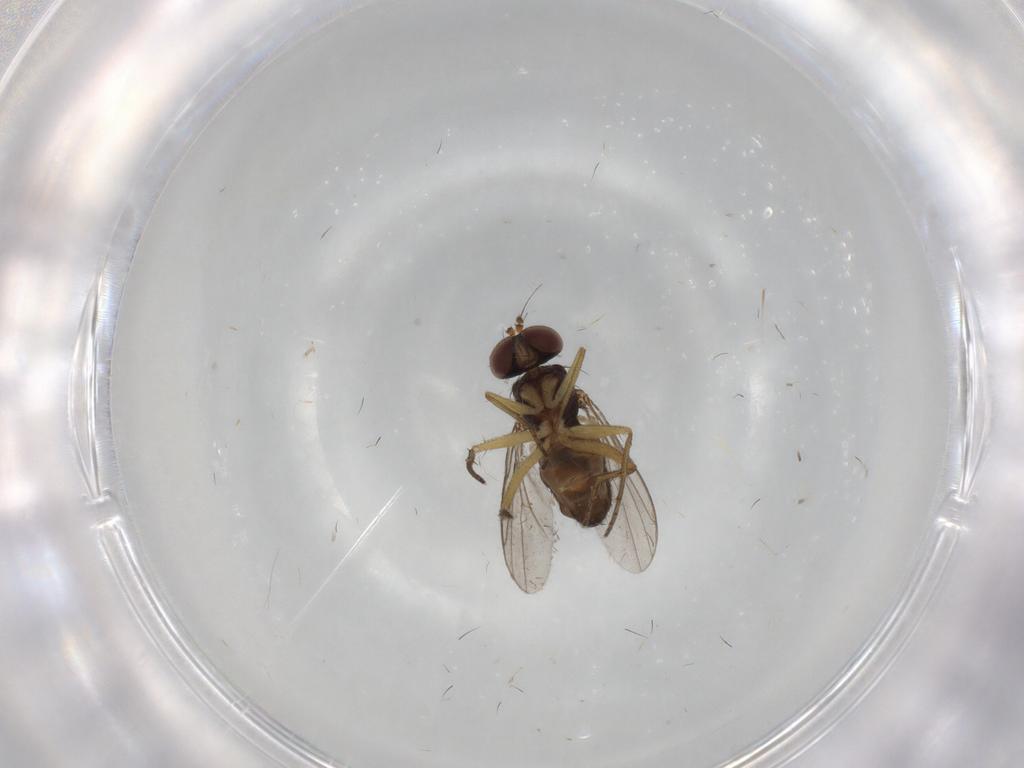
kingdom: Animalia
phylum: Arthropoda
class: Insecta
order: Diptera
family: Dolichopodidae
